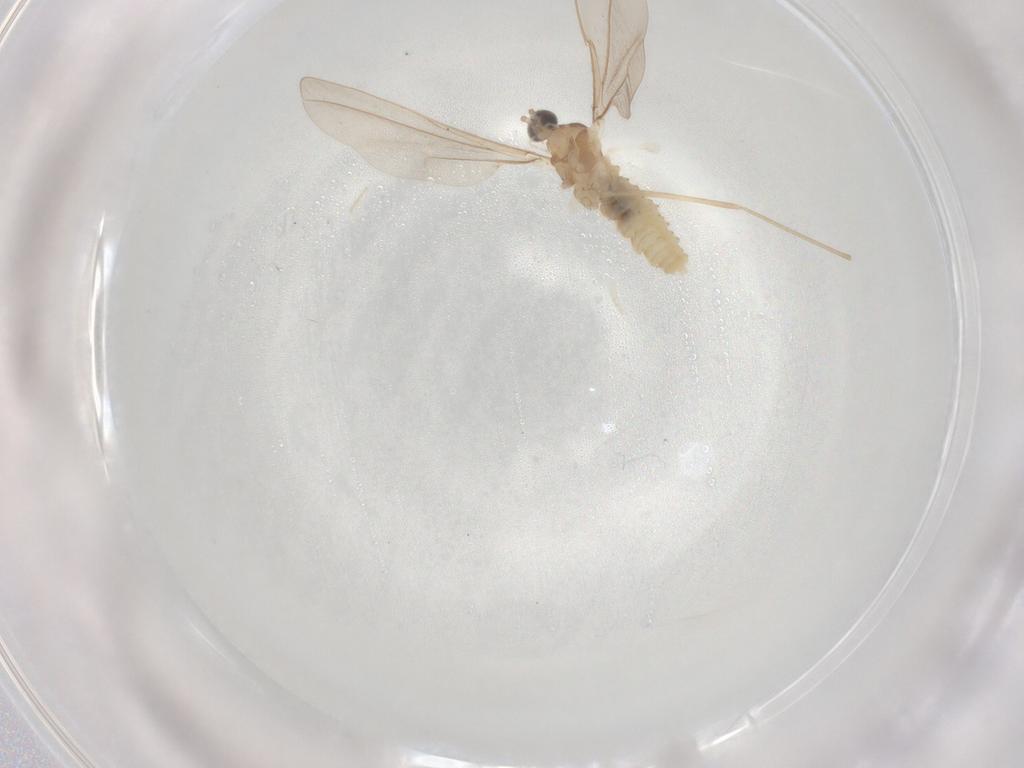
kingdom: Animalia
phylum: Arthropoda
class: Insecta
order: Diptera
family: Cecidomyiidae
